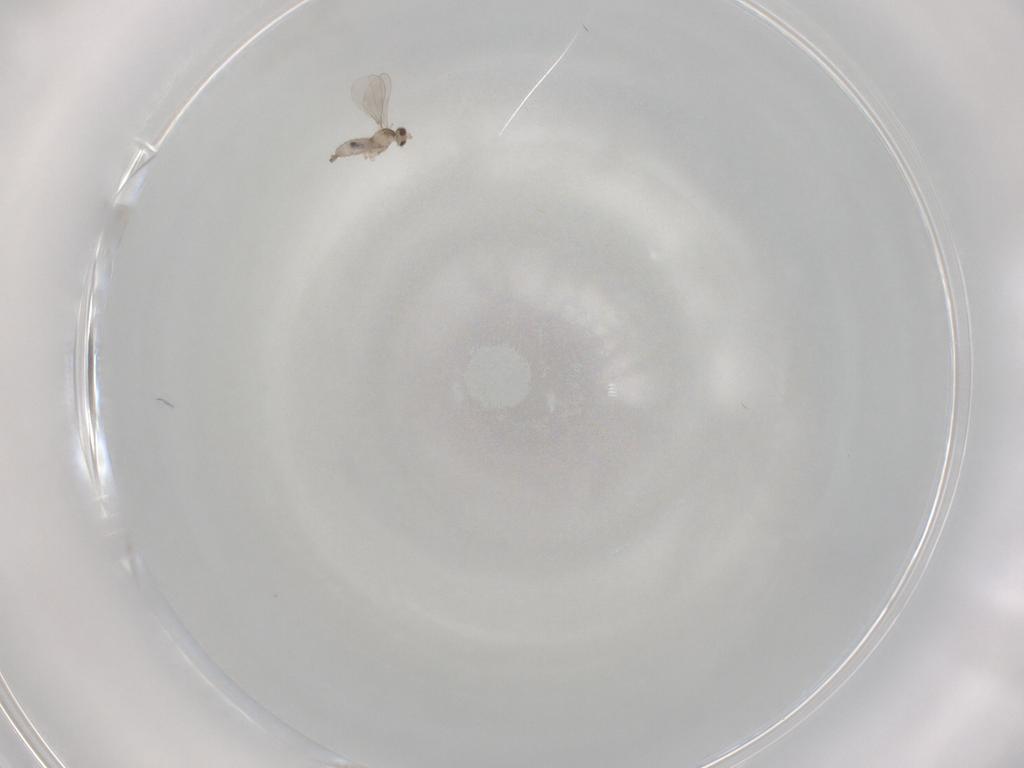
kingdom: Animalia
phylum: Arthropoda
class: Insecta
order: Diptera
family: Cecidomyiidae
